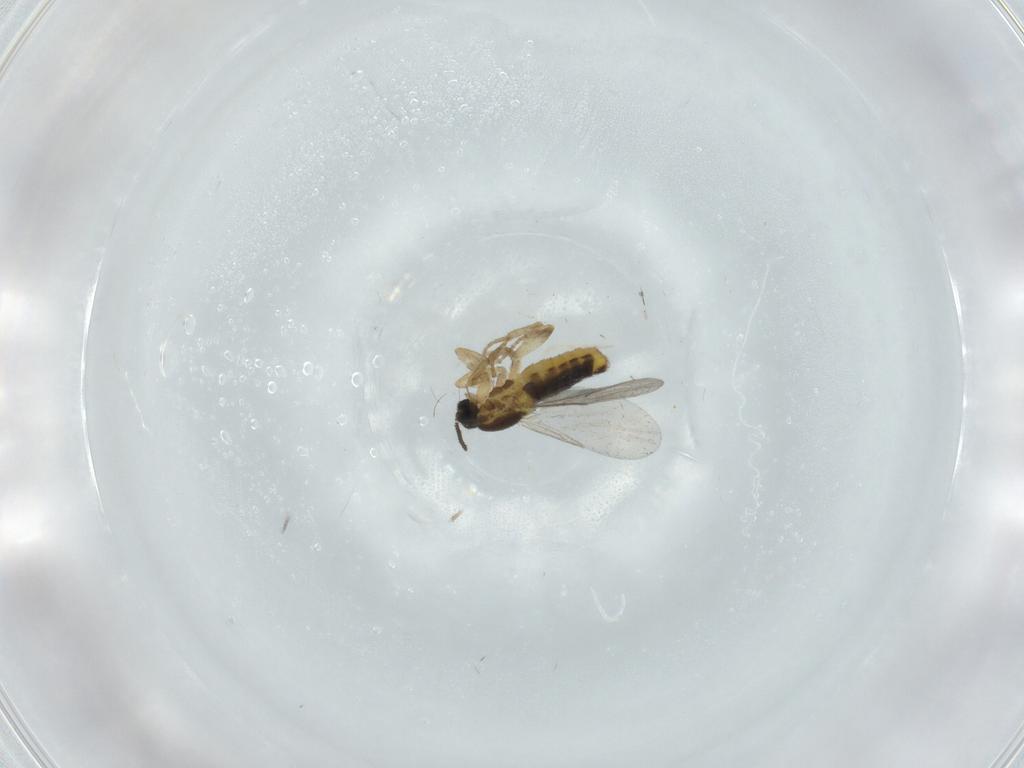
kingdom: Animalia
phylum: Arthropoda
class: Insecta
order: Diptera
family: Scatopsidae
